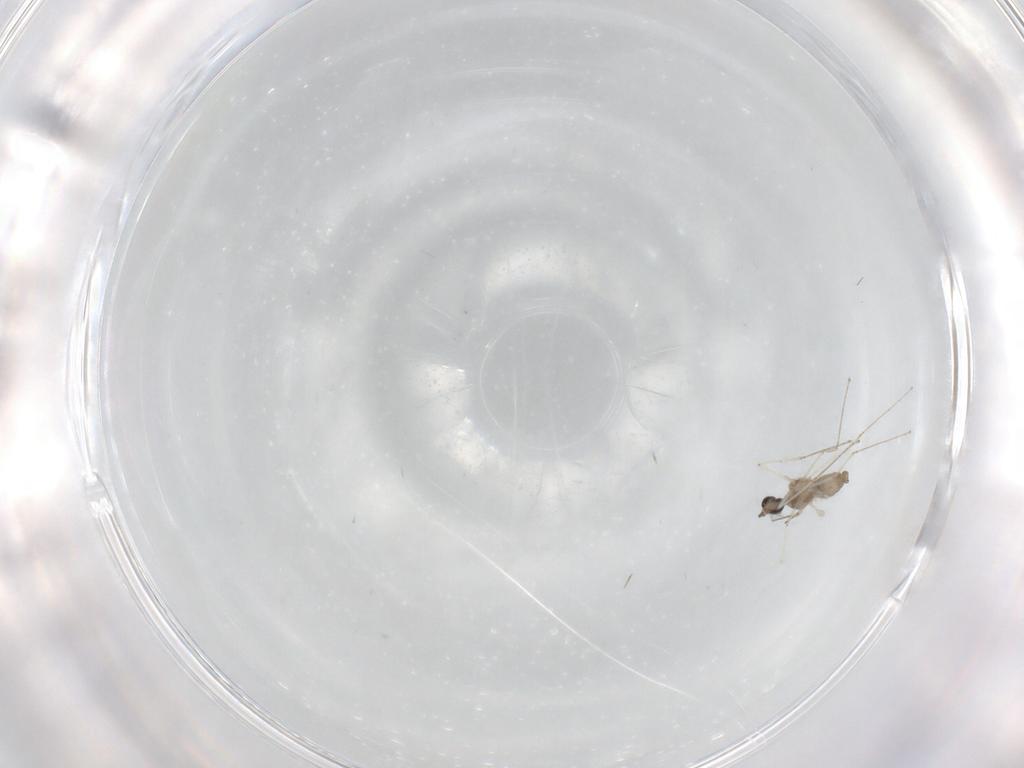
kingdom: Animalia
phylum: Arthropoda
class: Insecta
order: Diptera
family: Cecidomyiidae
